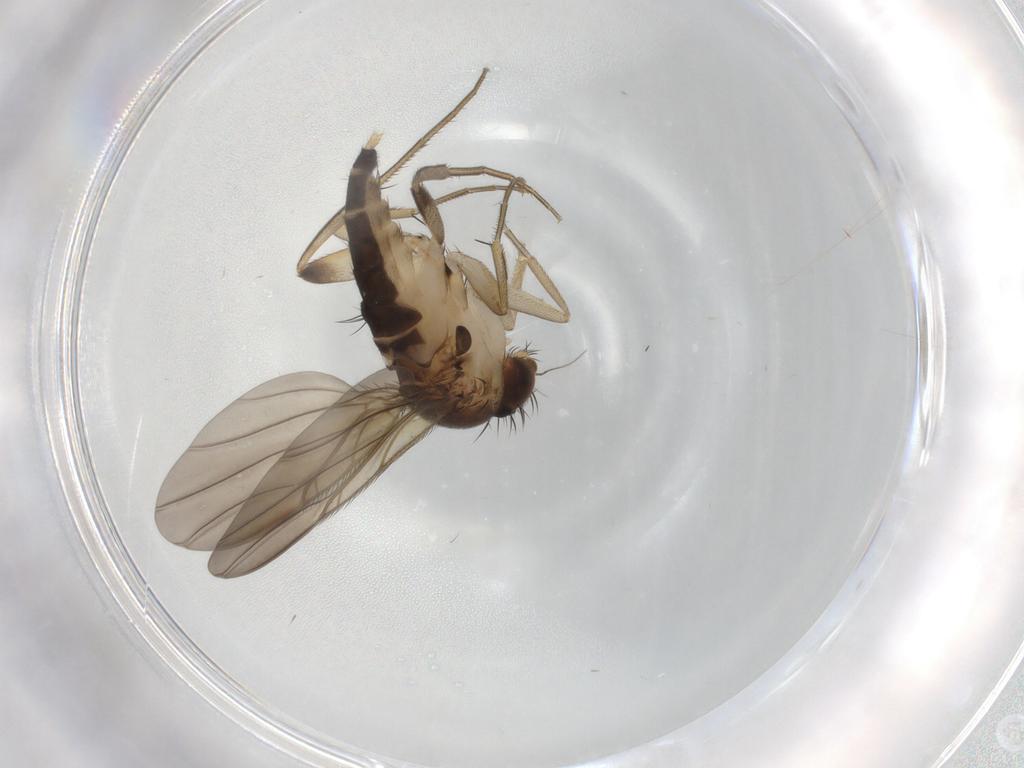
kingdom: Animalia
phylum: Arthropoda
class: Insecta
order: Diptera
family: Phoridae
